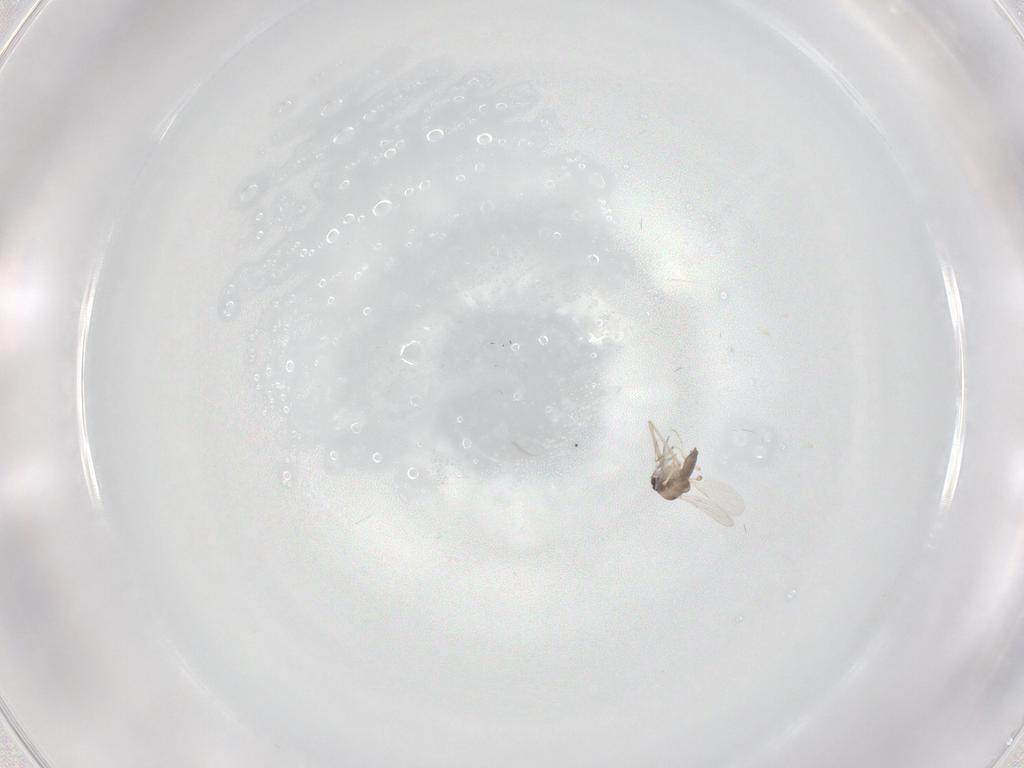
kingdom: Animalia
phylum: Arthropoda
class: Insecta
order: Diptera
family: Ceratopogonidae
